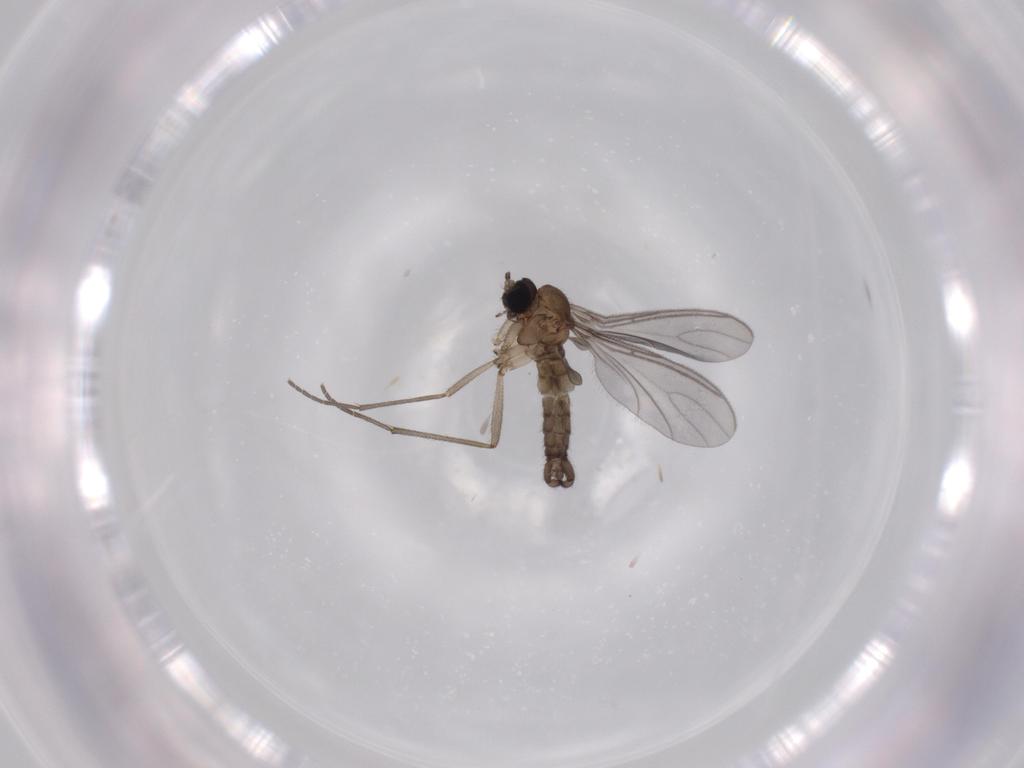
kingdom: Animalia
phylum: Arthropoda
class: Insecta
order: Diptera
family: Sciaridae
